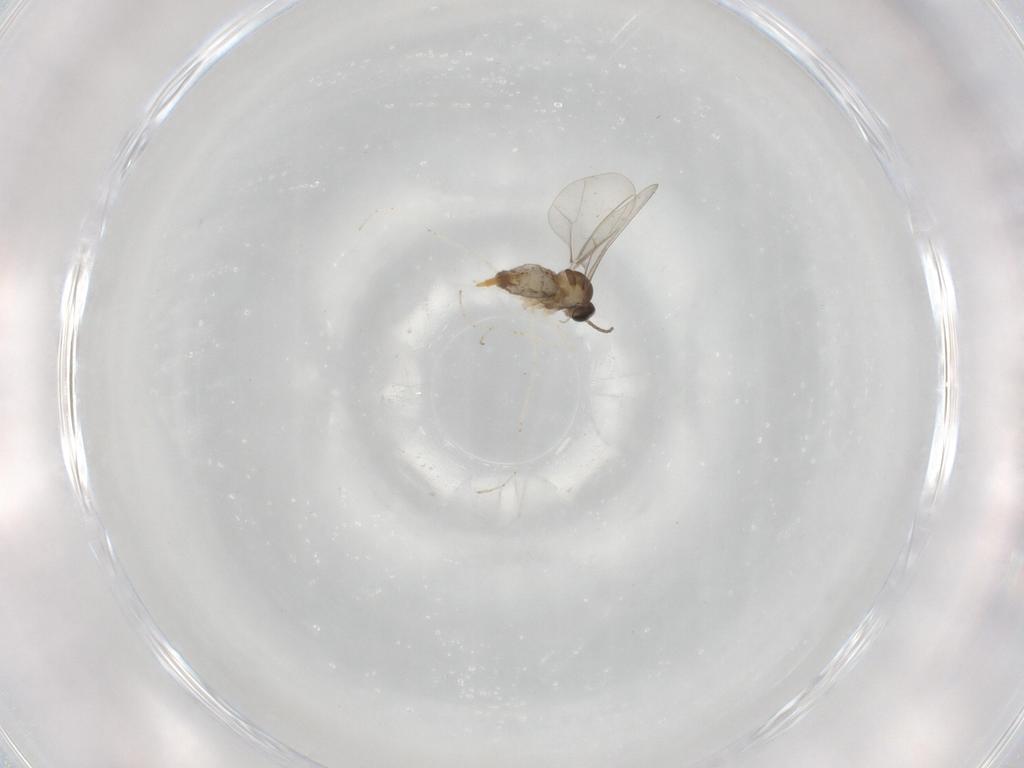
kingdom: Animalia
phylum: Arthropoda
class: Insecta
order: Diptera
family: Cecidomyiidae
